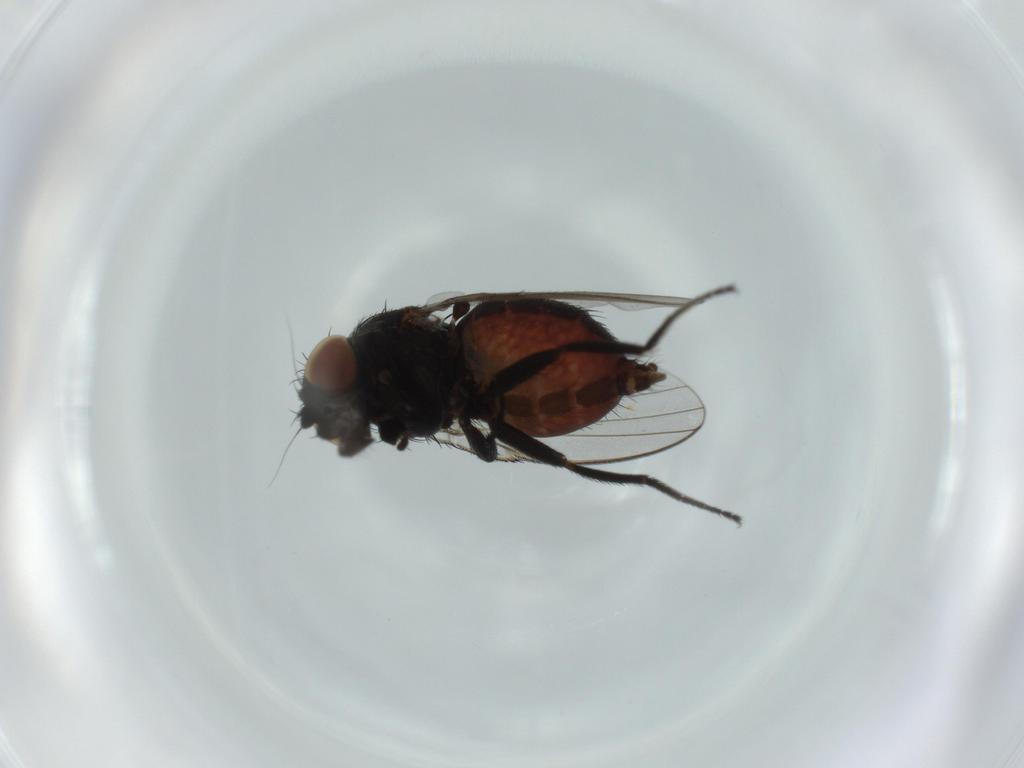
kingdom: Animalia
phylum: Arthropoda
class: Insecta
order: Diptera
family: Milichiidae
